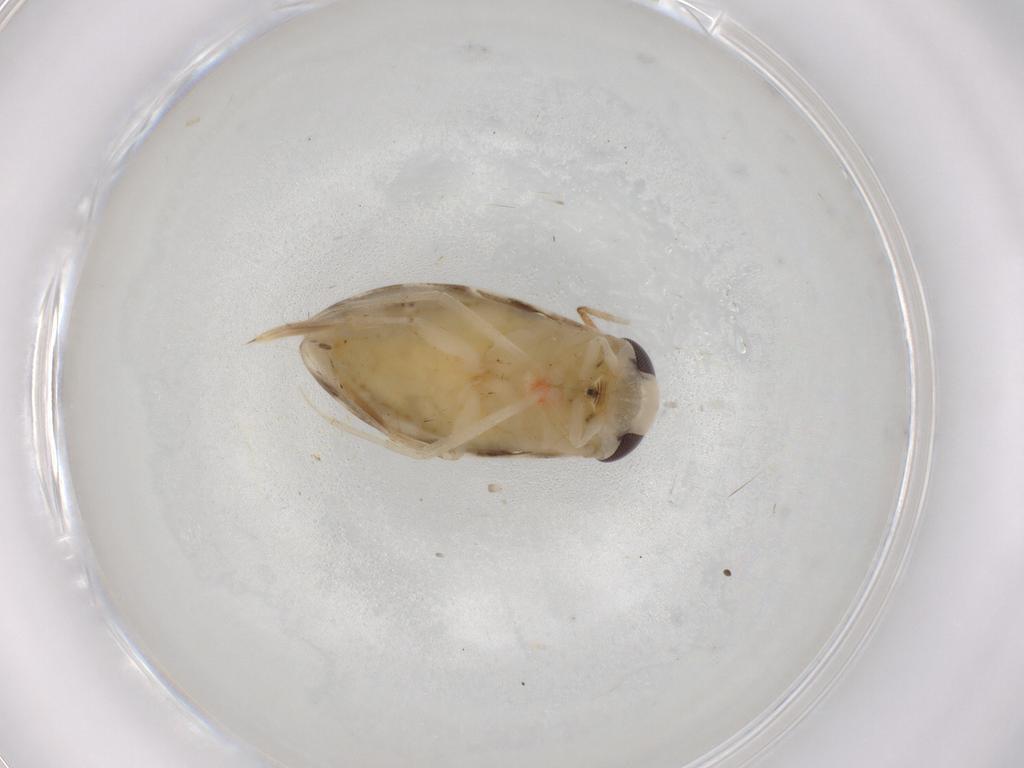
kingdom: Animalia
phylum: Arthropoda
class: Insecta
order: Hemiptera
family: Corixidae
